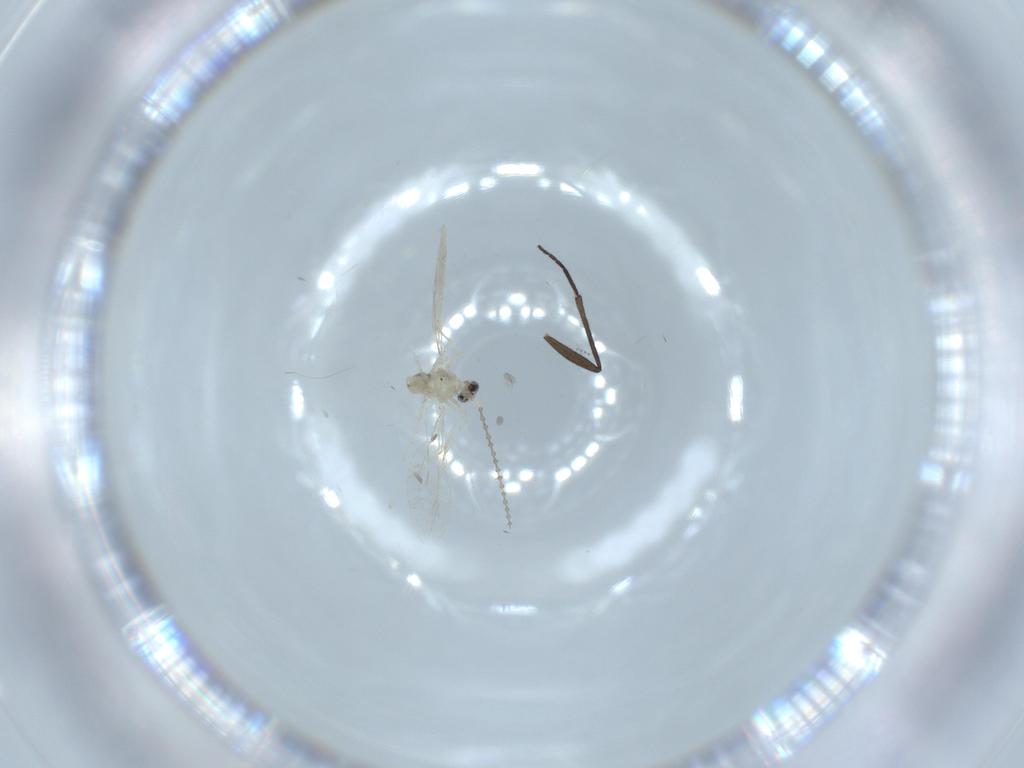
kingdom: Animalia
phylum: Arthropoda
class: Insecta
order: Diptera
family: Cecidomyiidae
